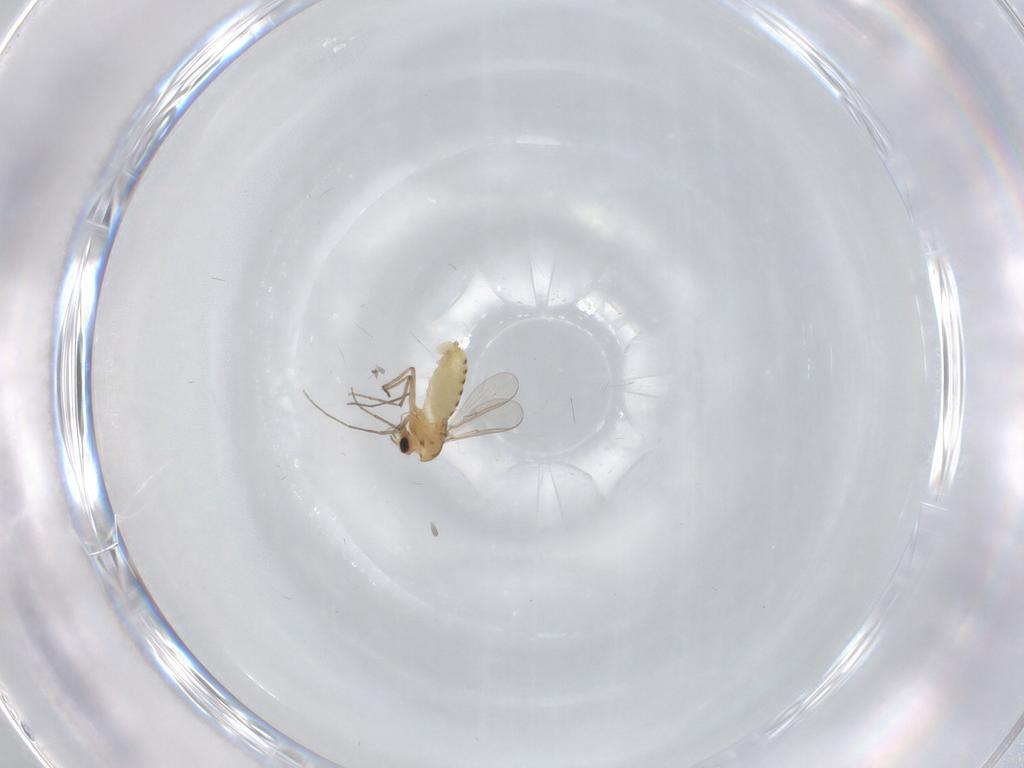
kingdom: Animalia
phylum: Arthropoda
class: Insecta
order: Diptera
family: Chironomidae
